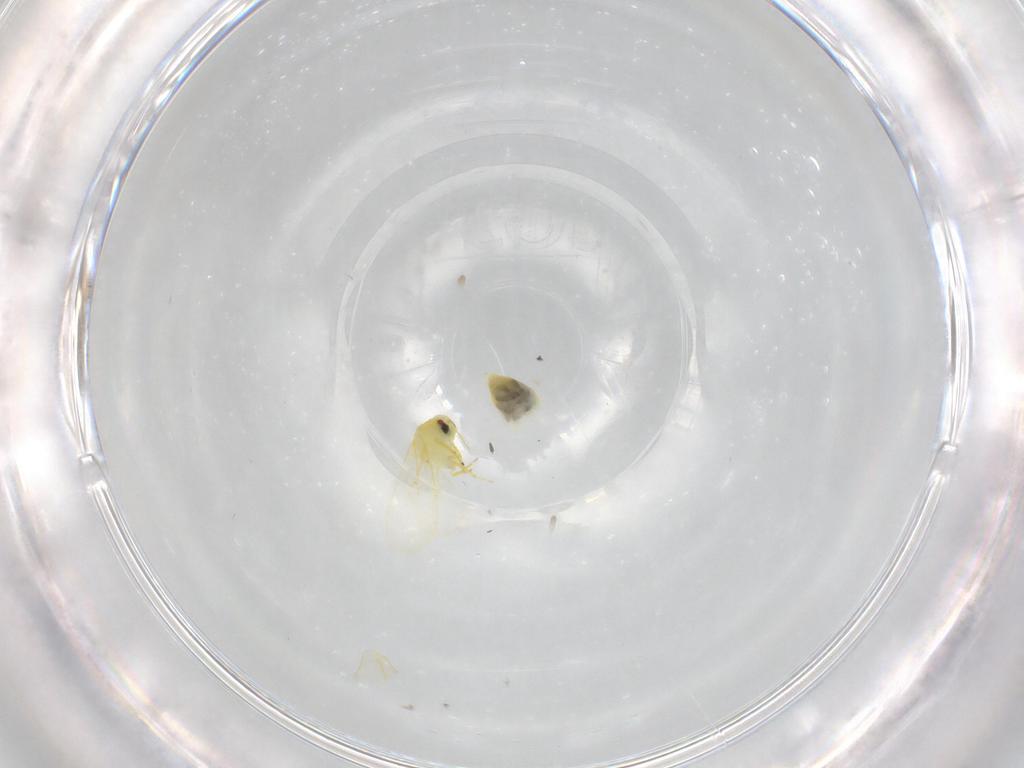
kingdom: Animalia
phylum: Arthropoda
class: Insecta
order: Hemiptera
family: Aleyrodidae
